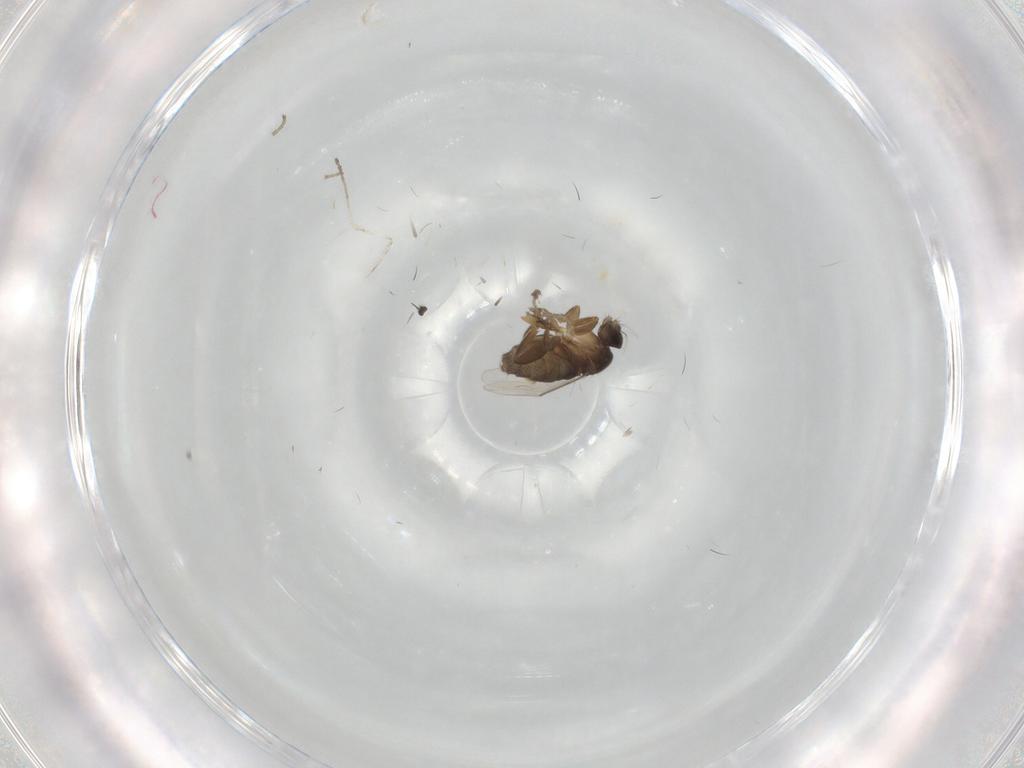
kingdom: Animalia
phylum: Arthropoda
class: Insecta
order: Diptera
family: Phoridae
